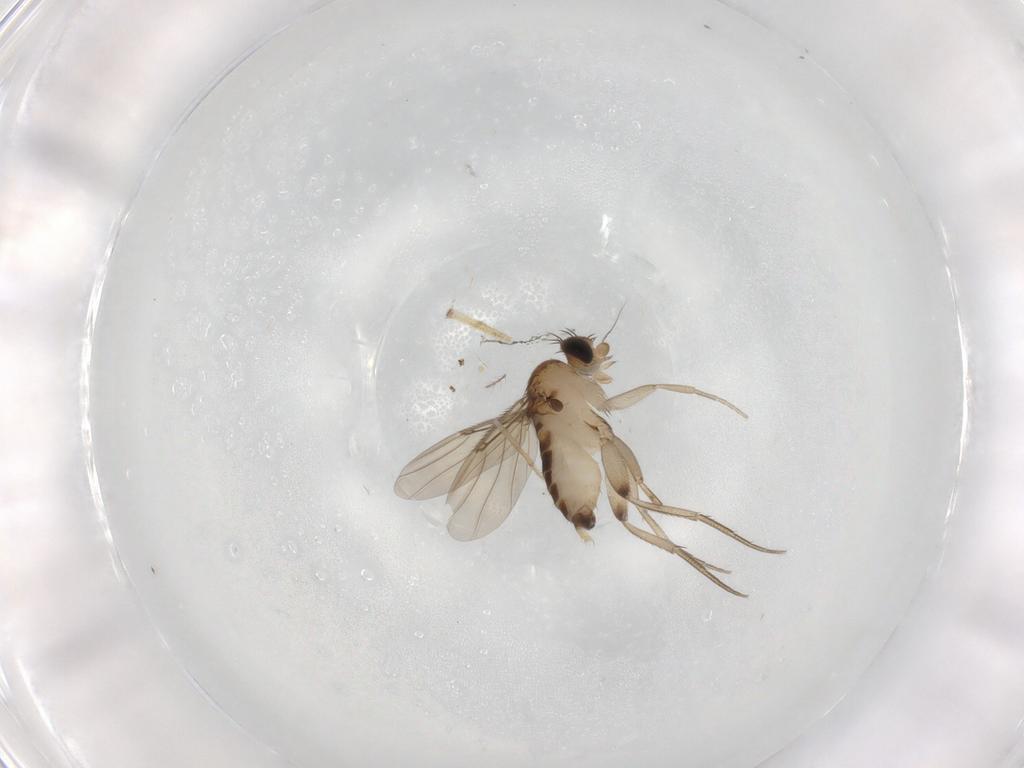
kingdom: Animalia
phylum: Arthropoda
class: Insecta
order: Diptera
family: Phoridae
